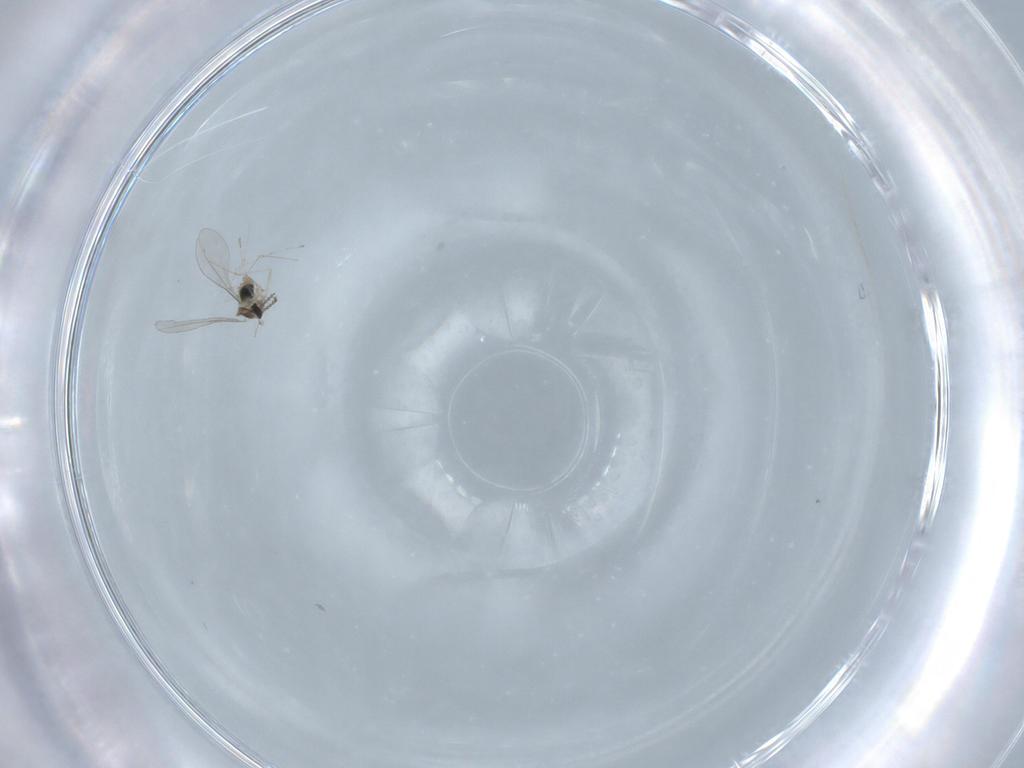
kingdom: Animalia
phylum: Arthropoda
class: Insecta
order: Diptera
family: Cecidomyiidae
